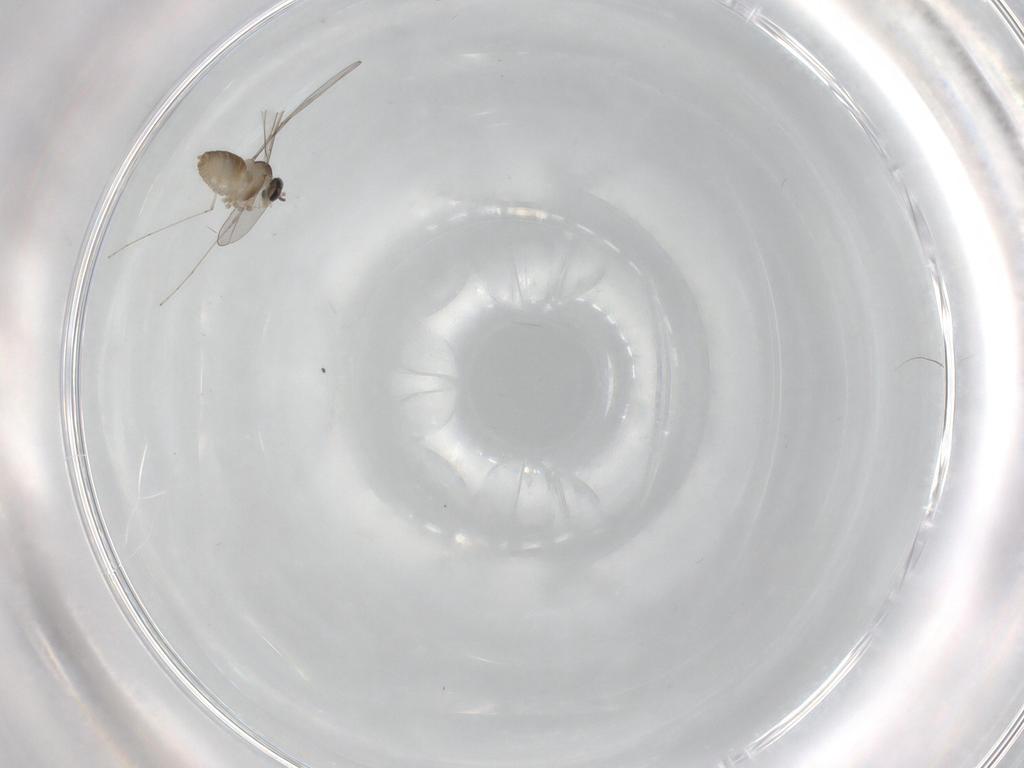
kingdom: Animalia
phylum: Arthropoda
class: Insecta
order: Diptera
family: Cecidomyiidae
